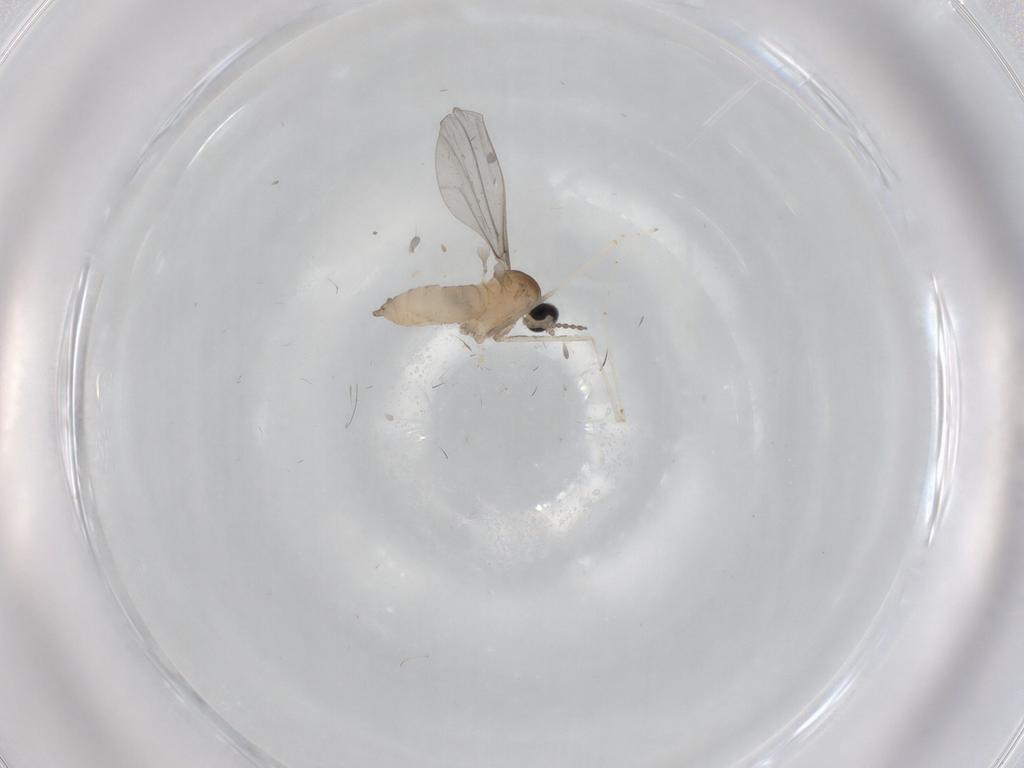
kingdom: Animalia
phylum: Arthropoda
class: Insecta
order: Diptera
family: Cecidomyiidae
